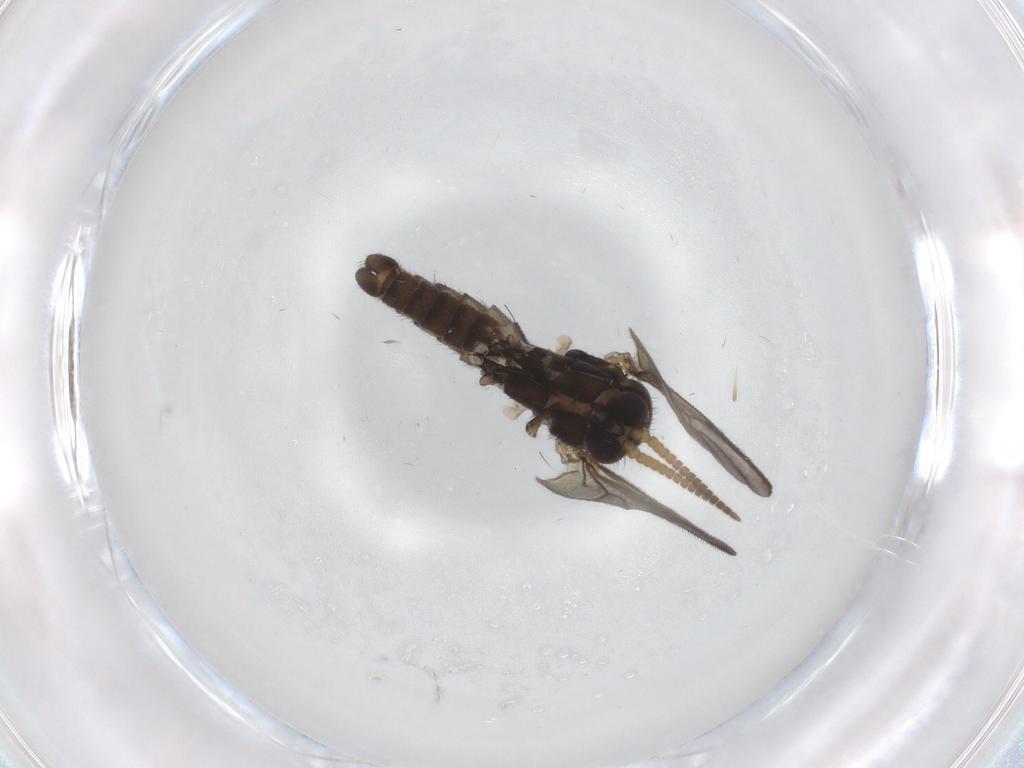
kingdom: Animalia
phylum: Arthropoda
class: Insecta
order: Diptera
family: Mycetophilidae
